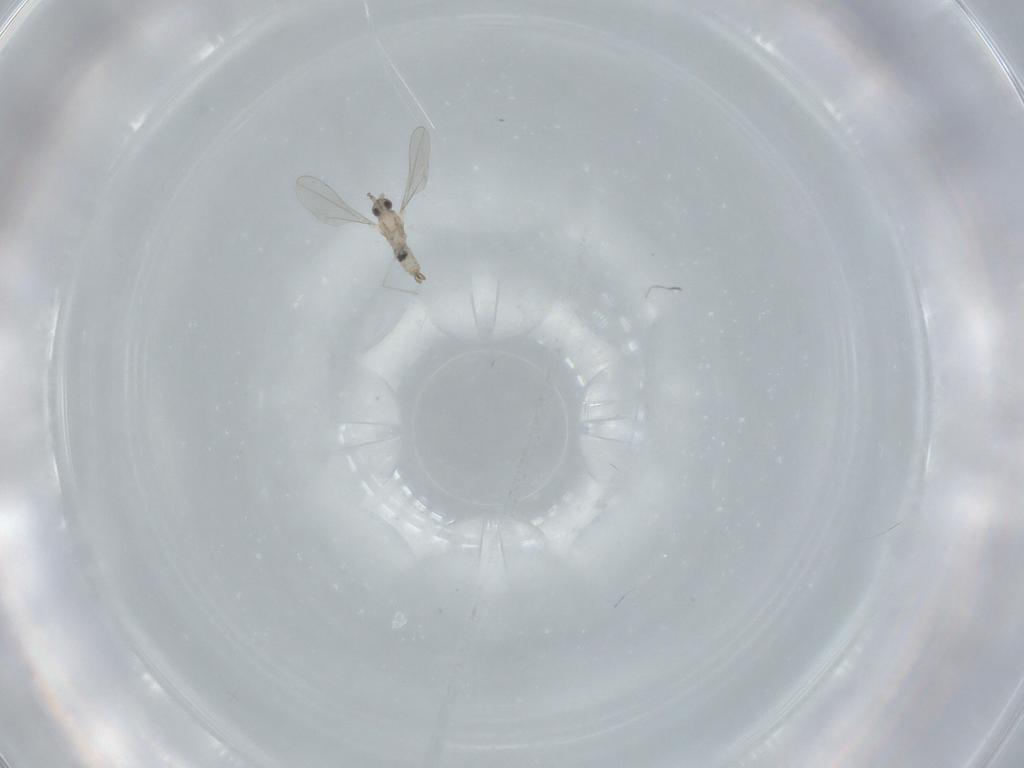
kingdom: Animalia
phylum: Arthropoda
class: Insecta
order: Diptera
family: Cecidomyiidae
